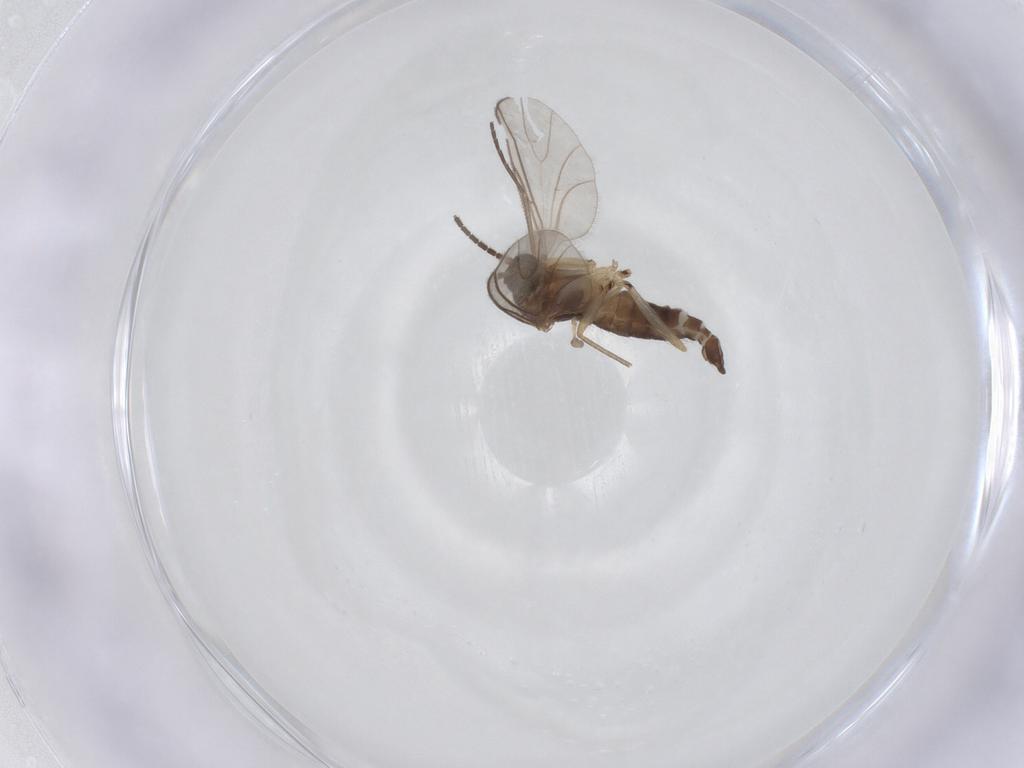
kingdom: Animalia
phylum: Arthropoda
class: Insecta
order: Diptera
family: Sciaridae
